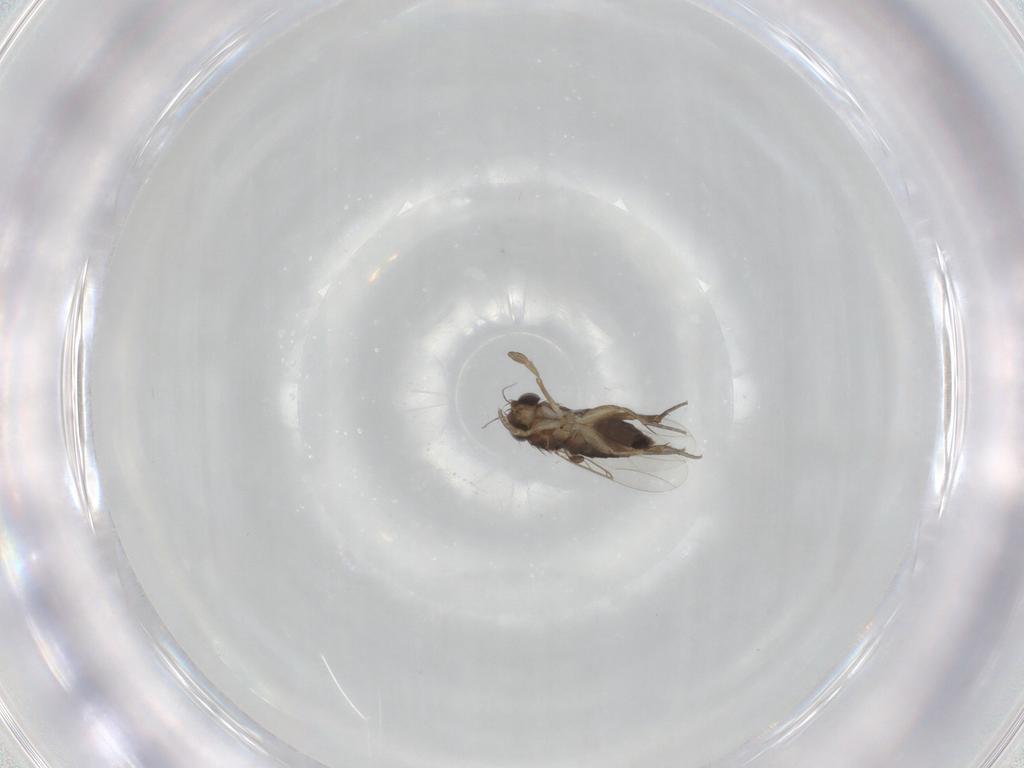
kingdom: Animalia
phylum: Arthropoda
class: Insecta
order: Diptera
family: Phoridae
